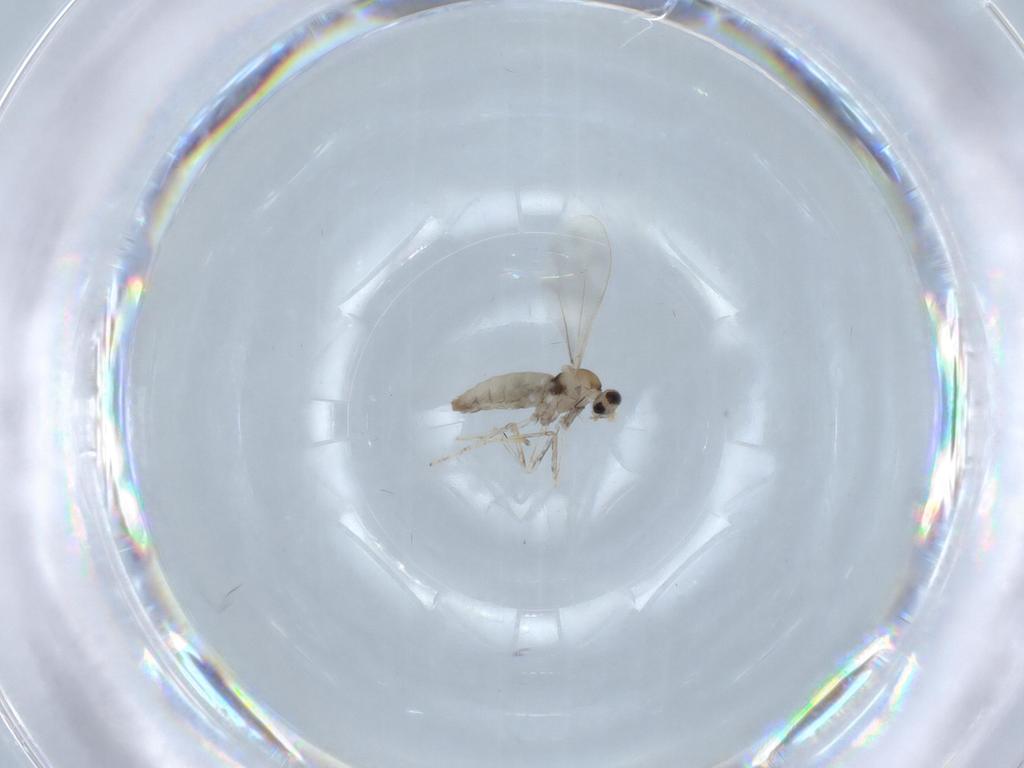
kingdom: Animalia
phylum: Arthropoda
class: Insecta
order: Diptera
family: Cecidomyiidae
